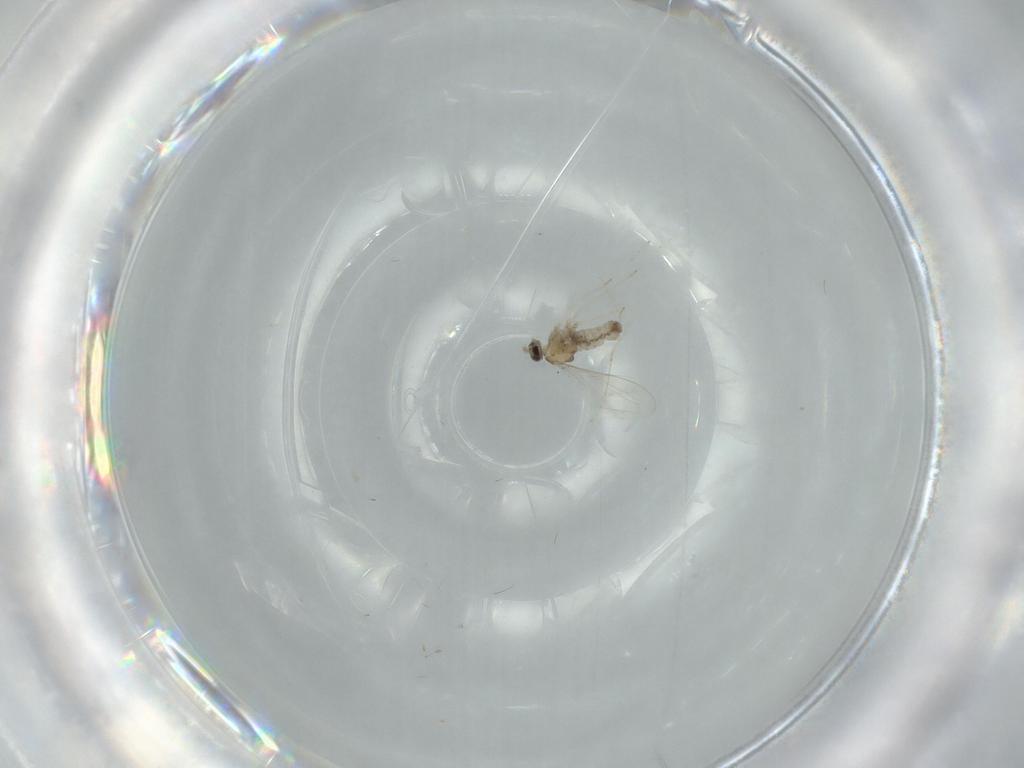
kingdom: Animalia
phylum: Arthropoda
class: Insecta
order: Diptera
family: Cecidomyiidae
